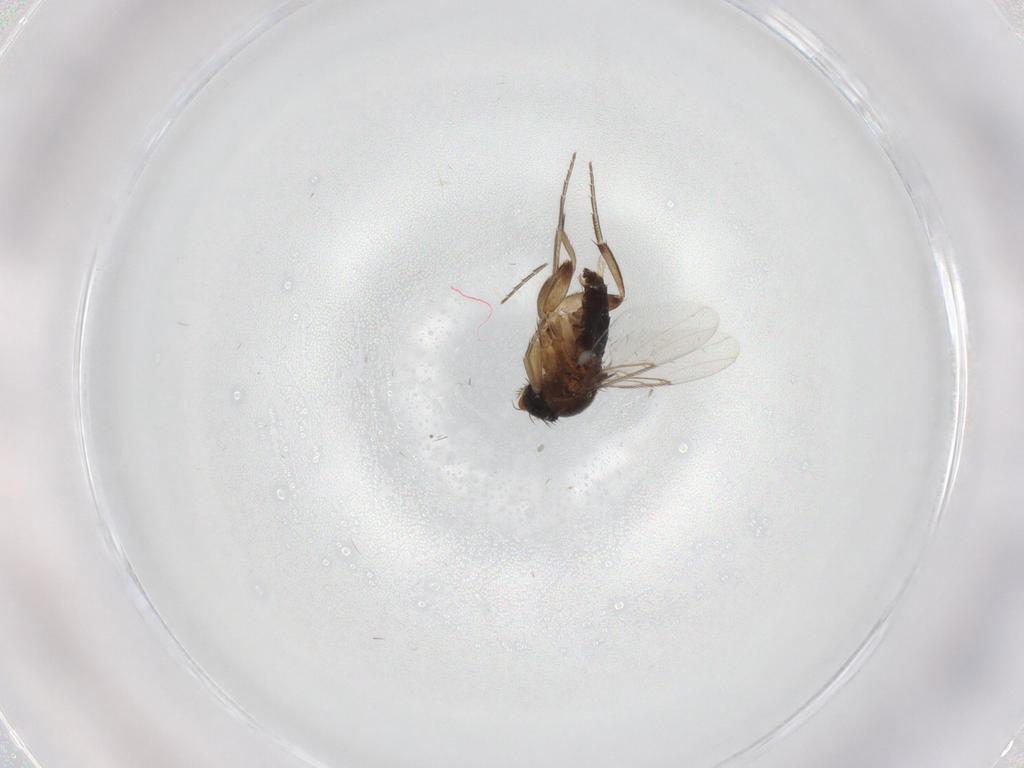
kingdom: Animalia
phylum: Arthropoda
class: Insecta
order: Diptera
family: Phoridae
